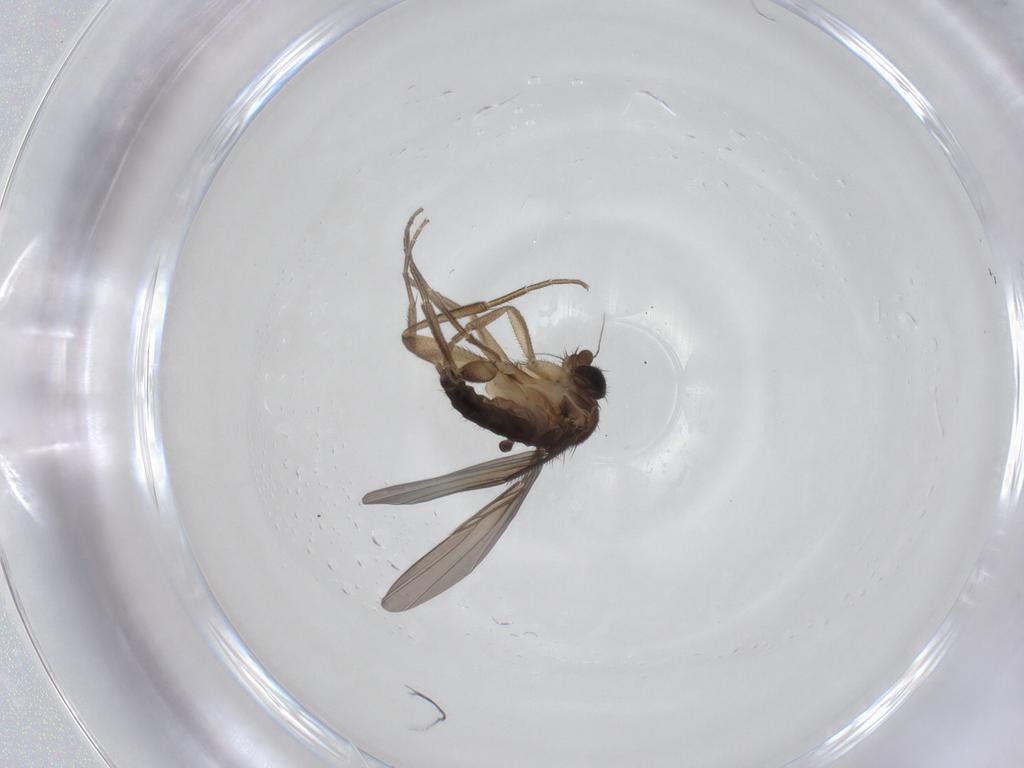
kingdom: Animalia
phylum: Arthropoda
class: Insecta
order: Diptera
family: Phoridae
